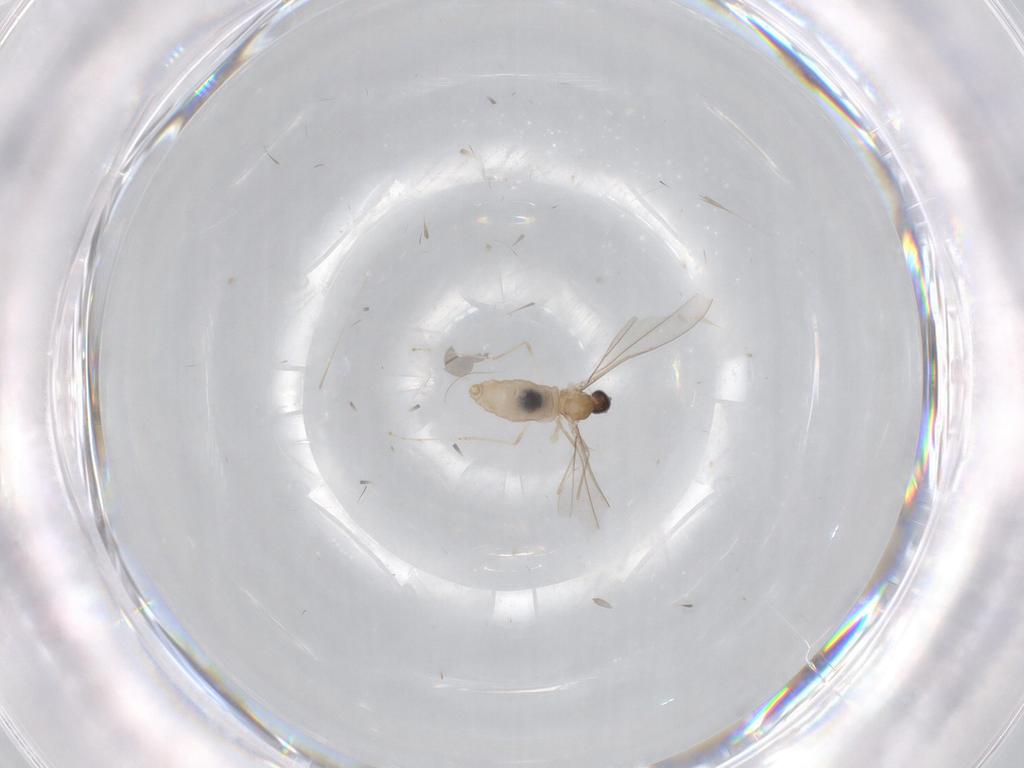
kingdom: Animalia
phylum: Arthropoda
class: Insecta
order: Diptera
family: Cecidomyiidae
